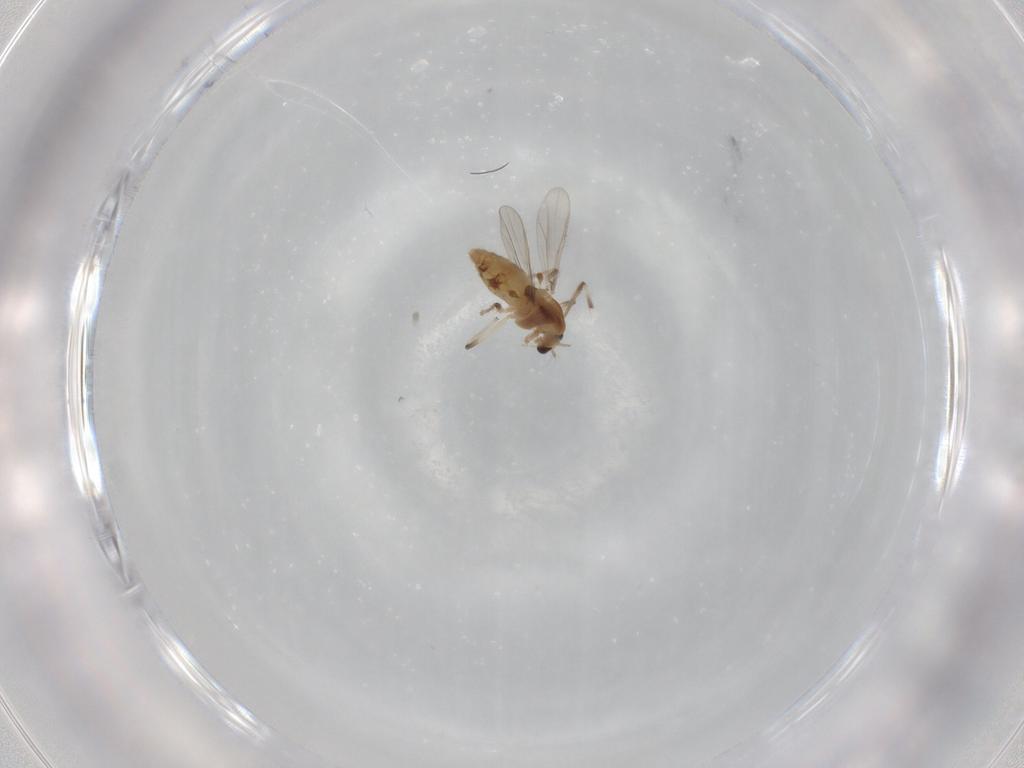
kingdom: Animalia
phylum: Arthropoda
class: Insecta
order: Diptera
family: Chironomidae
